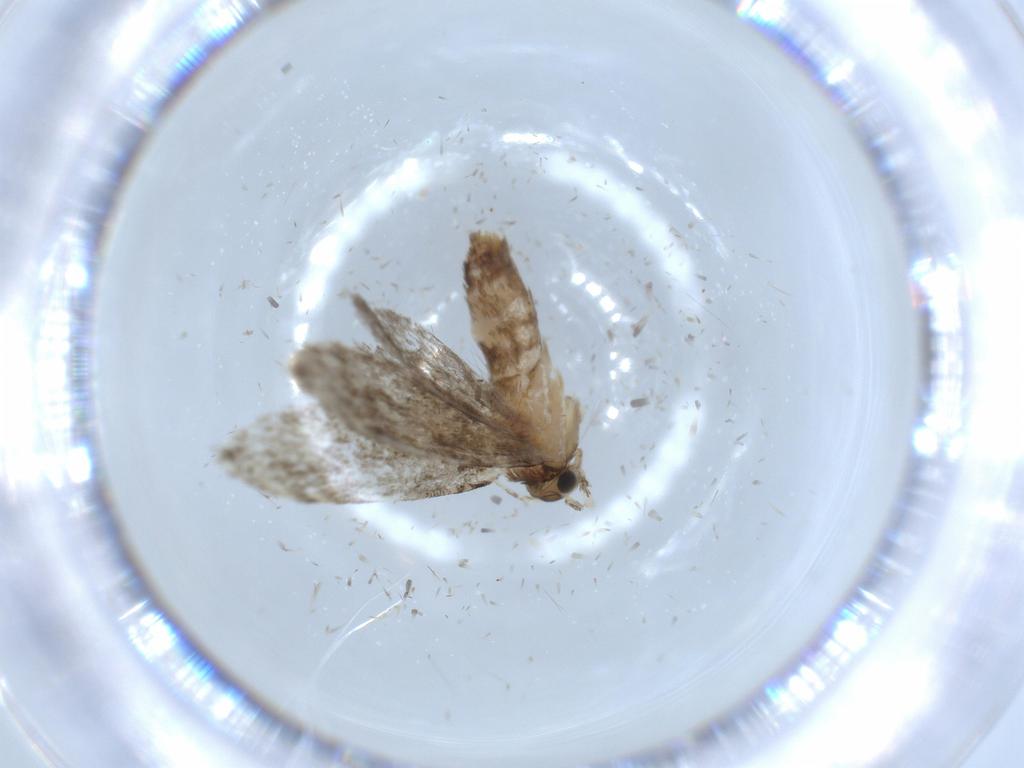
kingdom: Animalia
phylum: Arthropoda
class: Insecta
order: Lepidoptera
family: Tineidae
